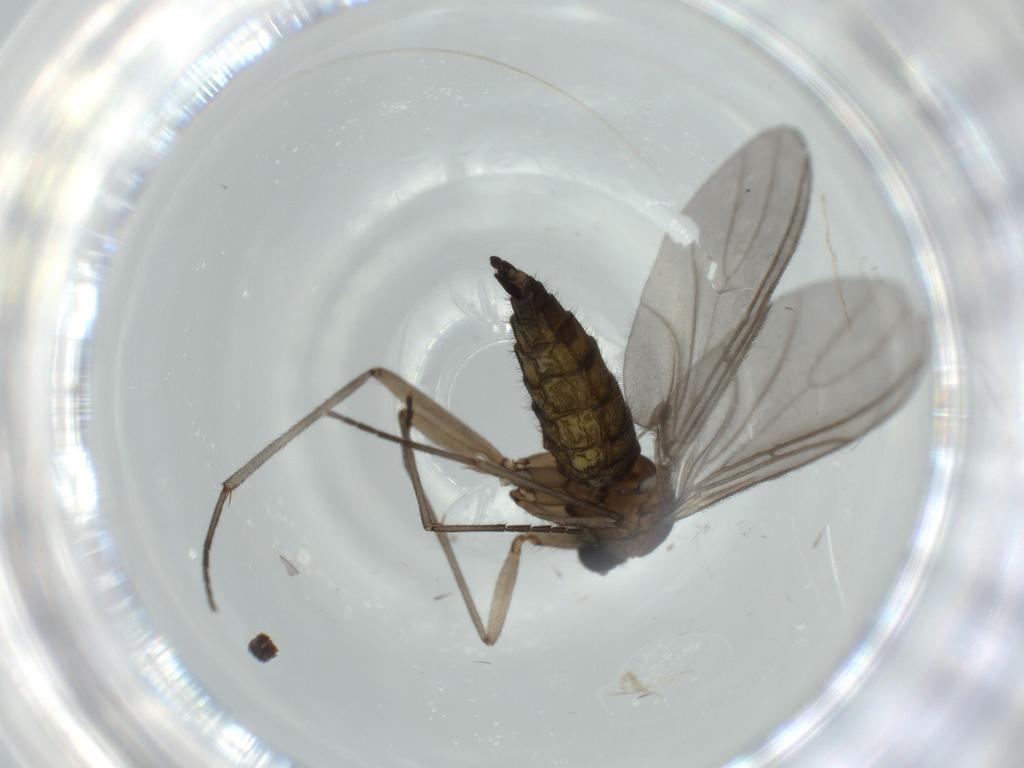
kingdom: Animalia
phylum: Arthropoda
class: Insecta
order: Diptera
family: Sciaridae
